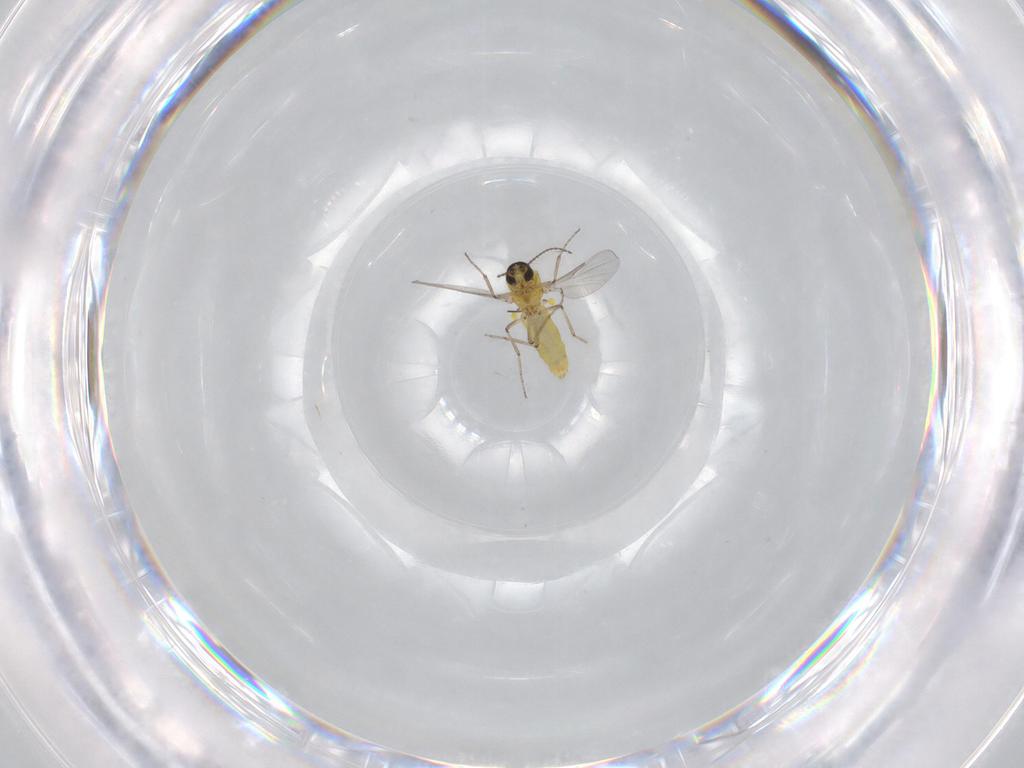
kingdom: Animalia
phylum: Arthropoda
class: Insecta
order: Diptera
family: Ceratopogonidae
